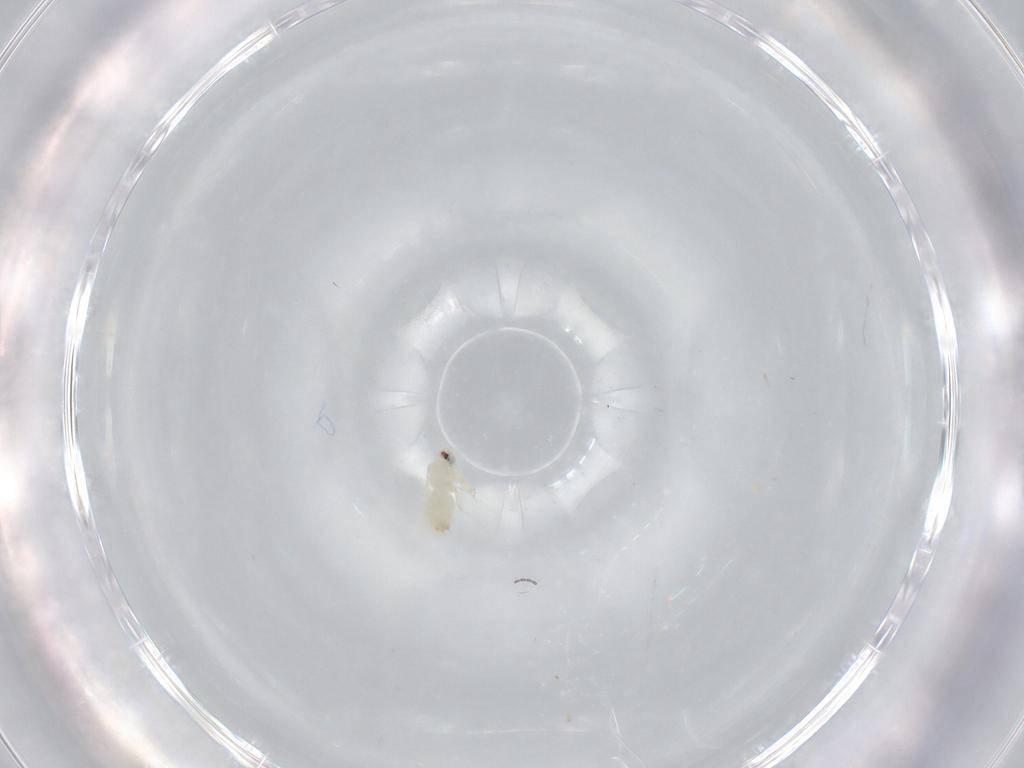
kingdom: Animalia
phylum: Arthropoda
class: Insecta
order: Hemiptera
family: Aleyrodidae
